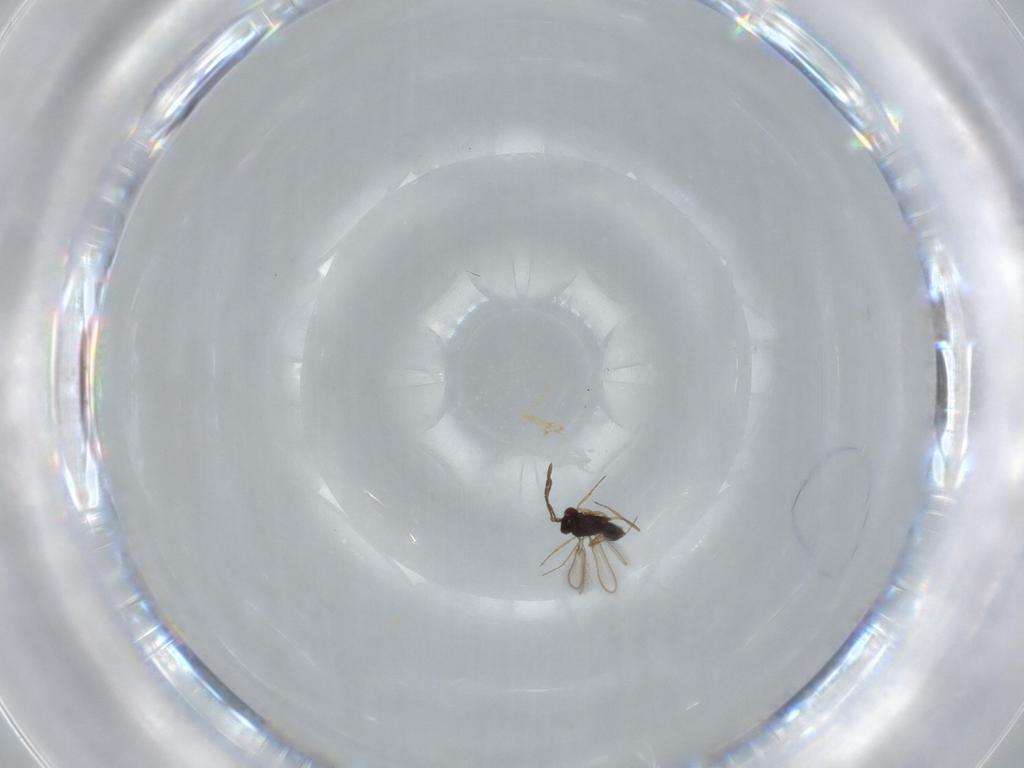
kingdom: Animalia
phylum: Arthropoda
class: Insecta
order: Hymenoptera
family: Mymaridae
